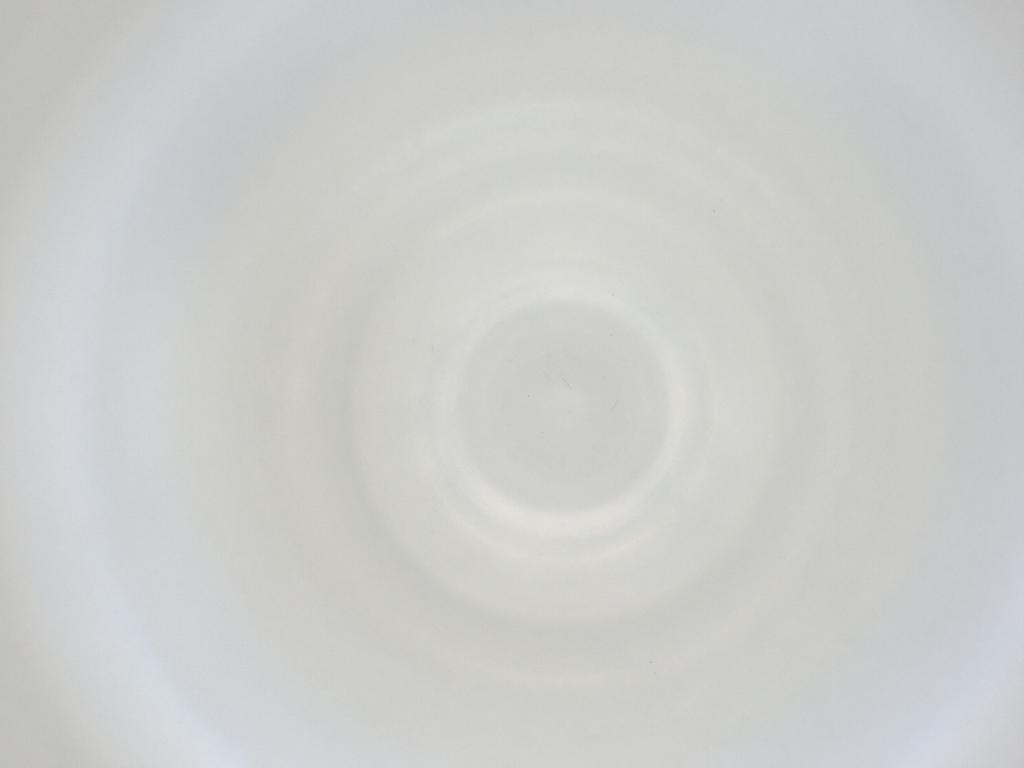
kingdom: Animalia
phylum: Arthropoda
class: Insecta
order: Diptera
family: Cecidomyiidae
